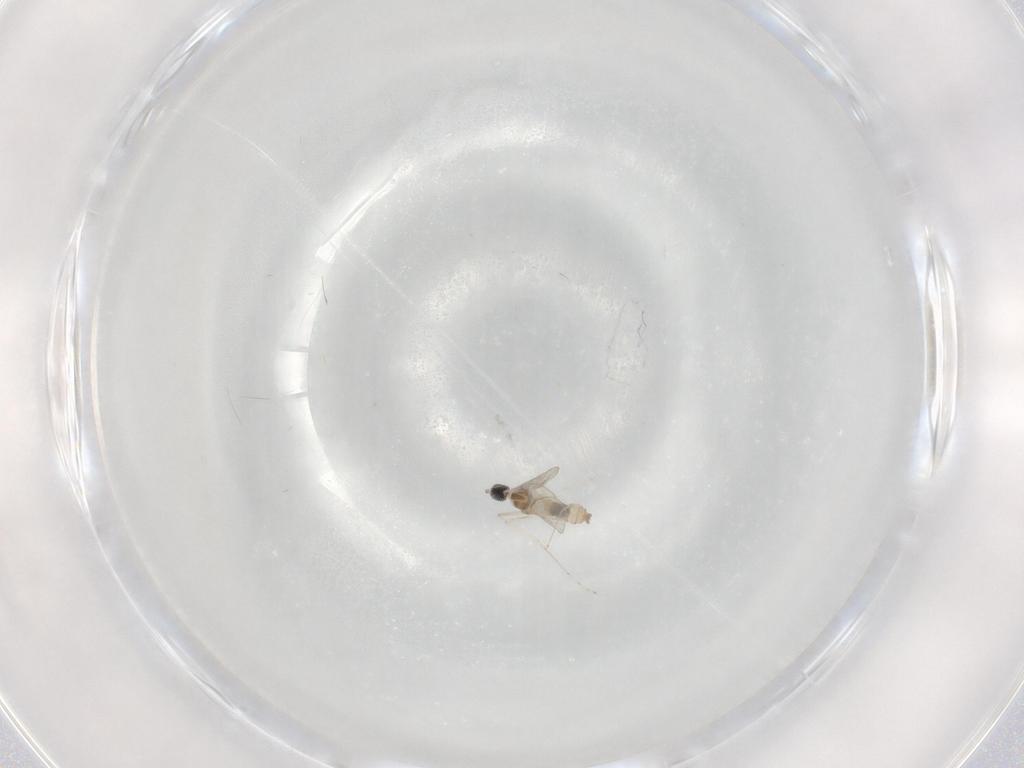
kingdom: Animalia
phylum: Arthropoda
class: Insecta
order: Diptera
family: Cecidomyiidae
